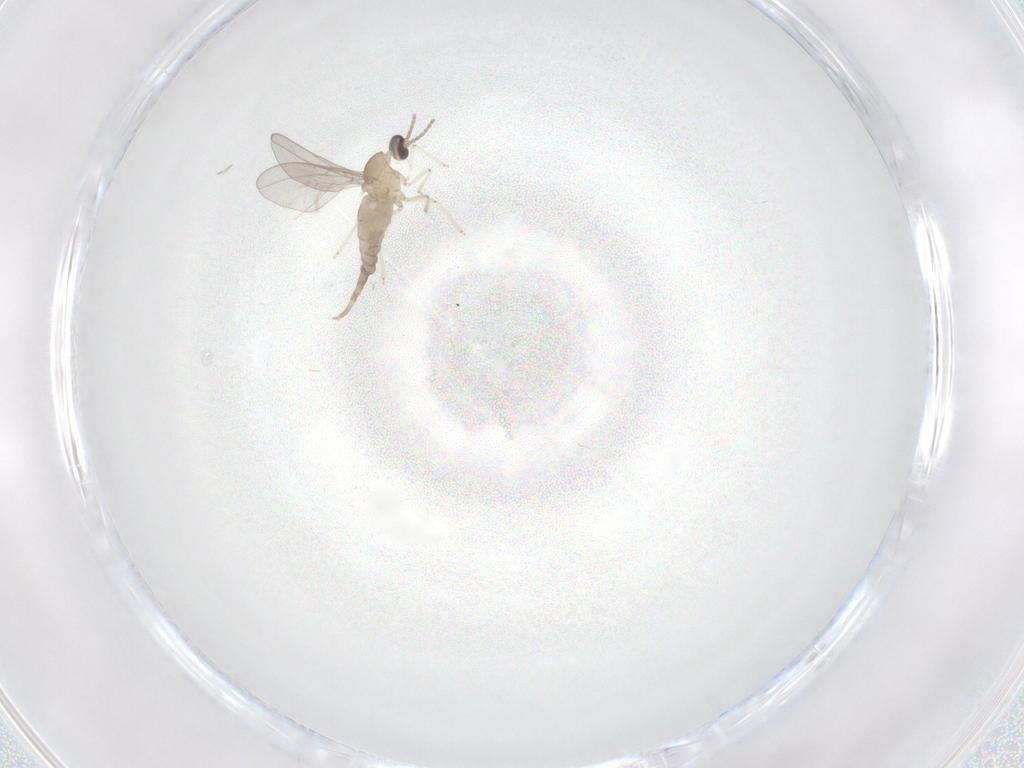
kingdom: Animalia
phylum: Arthropoda
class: Insecta
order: Diptera
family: Cecidomyiidae
